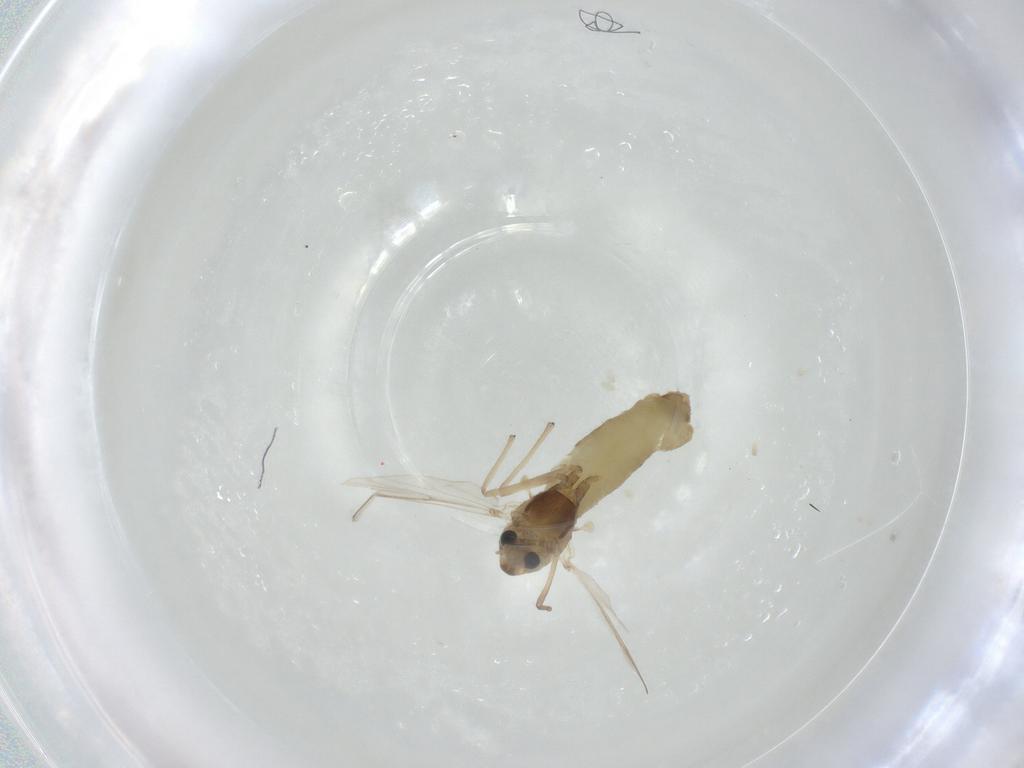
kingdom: Animalia
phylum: Arthropoda
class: Insecta
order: Diptera
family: Chironomidae
